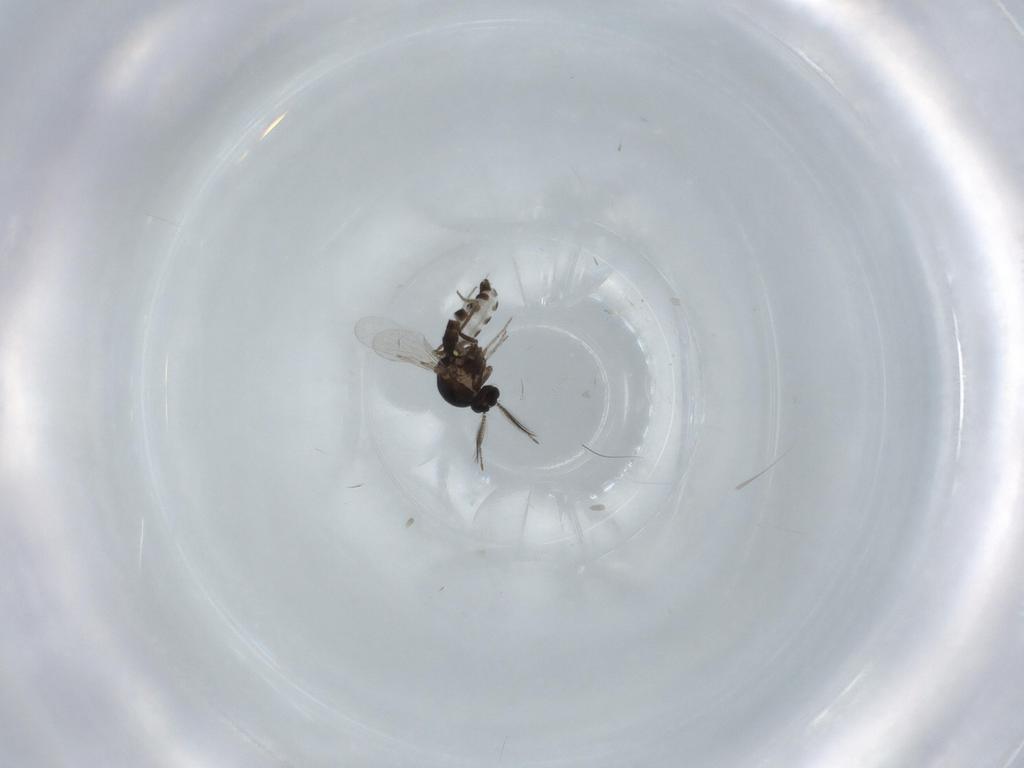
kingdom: Animalia
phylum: Arthropoda
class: Insecta
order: Diptera
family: Ceratopogonidae
